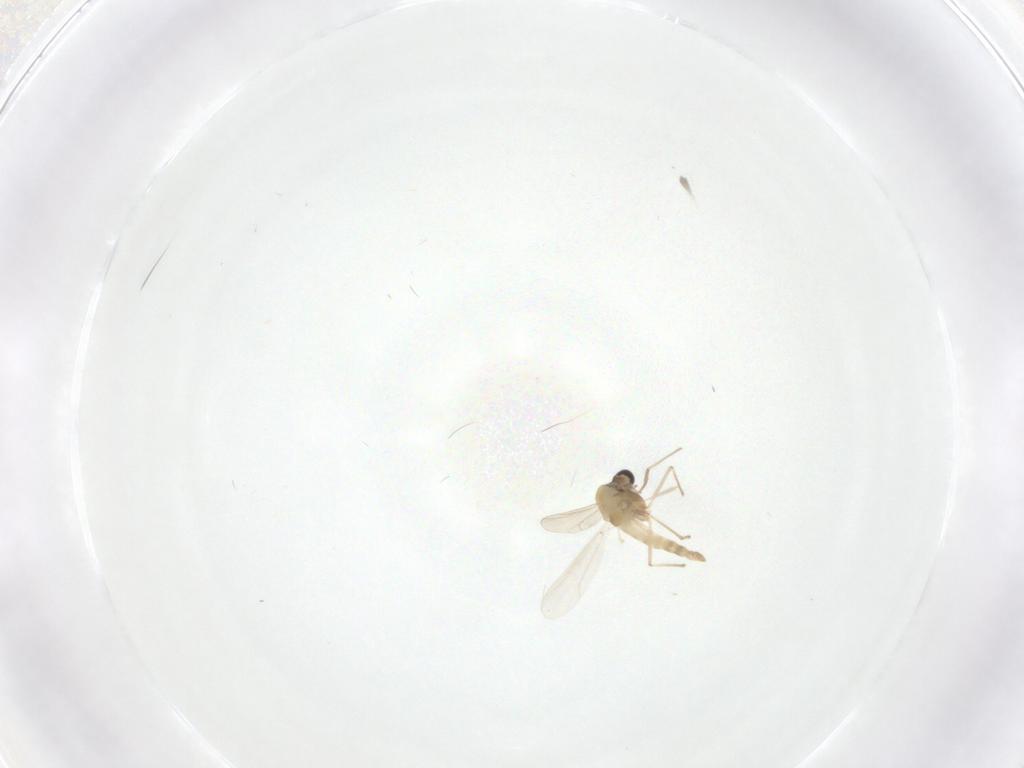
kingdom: Animalia
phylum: Arthropoda
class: Insecta
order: Diptera
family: Chironomidae
